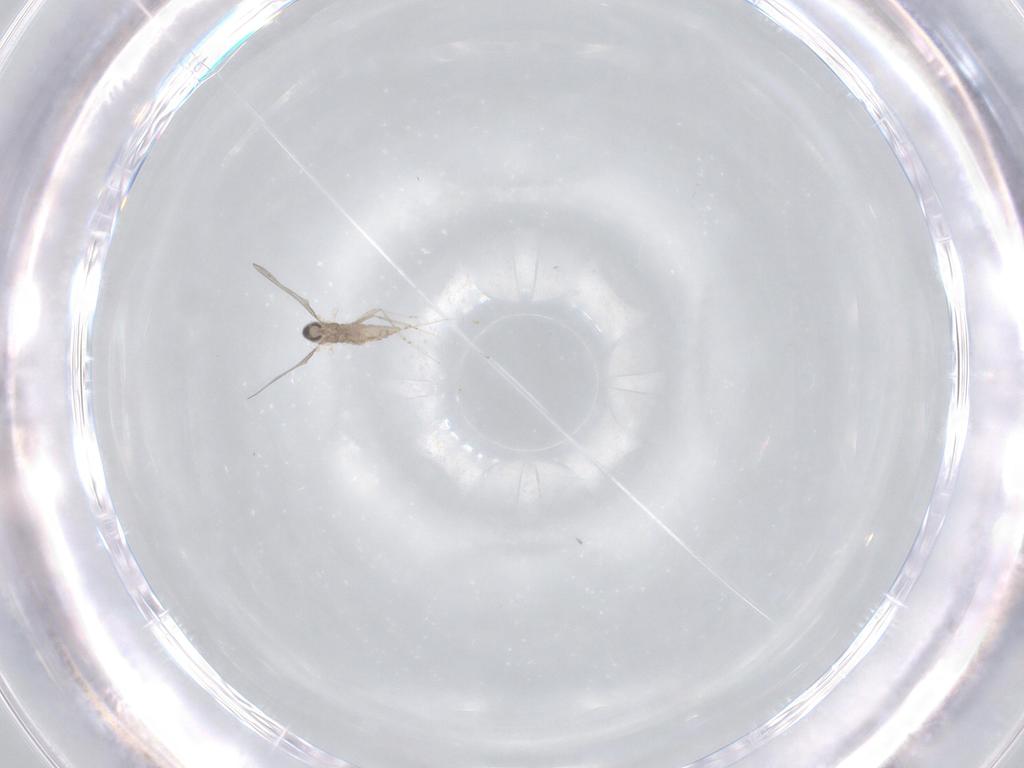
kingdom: Animalia
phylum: Arthropoda
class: Insecta
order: Diptera
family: Cecidomyiidae
